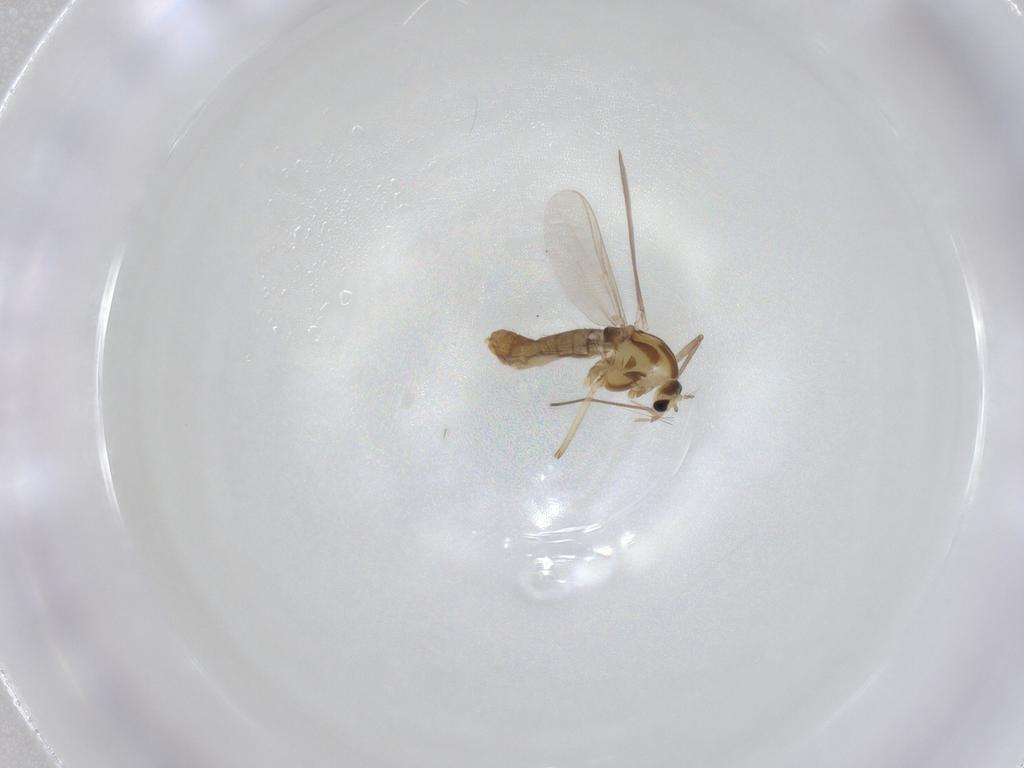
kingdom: Animalia
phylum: Arthropoda
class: Insecta
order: Diptera
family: Chironomidae
